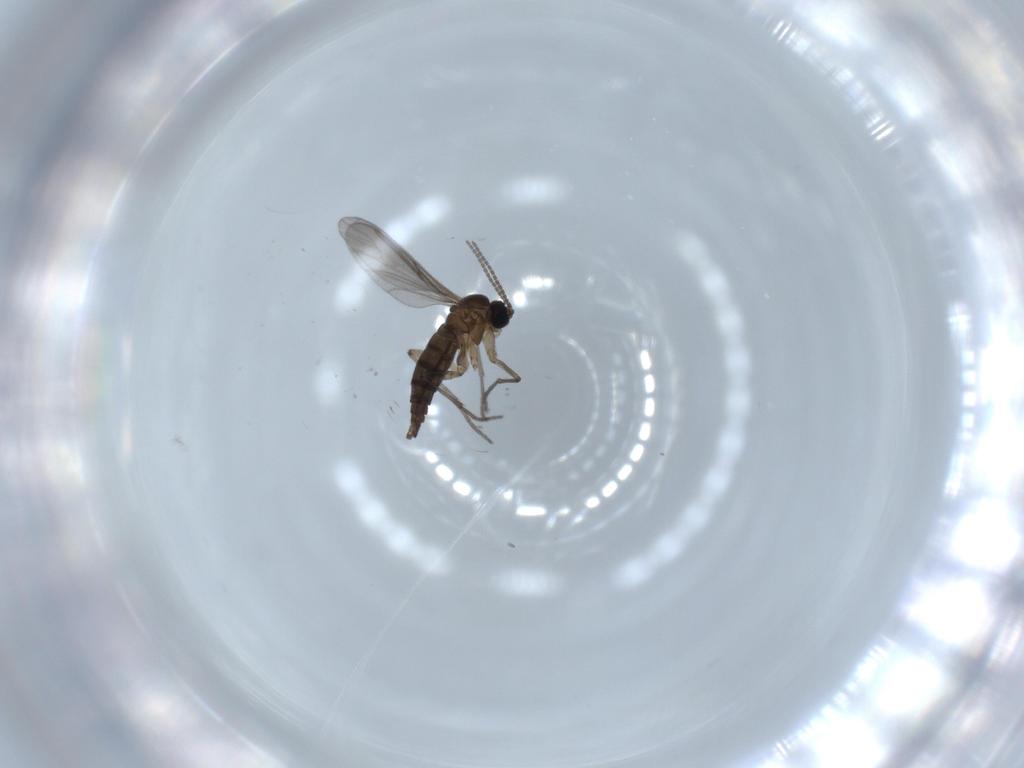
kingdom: Animalia
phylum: Arthropoda
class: Insecta
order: Diptera
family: Sciaridae
